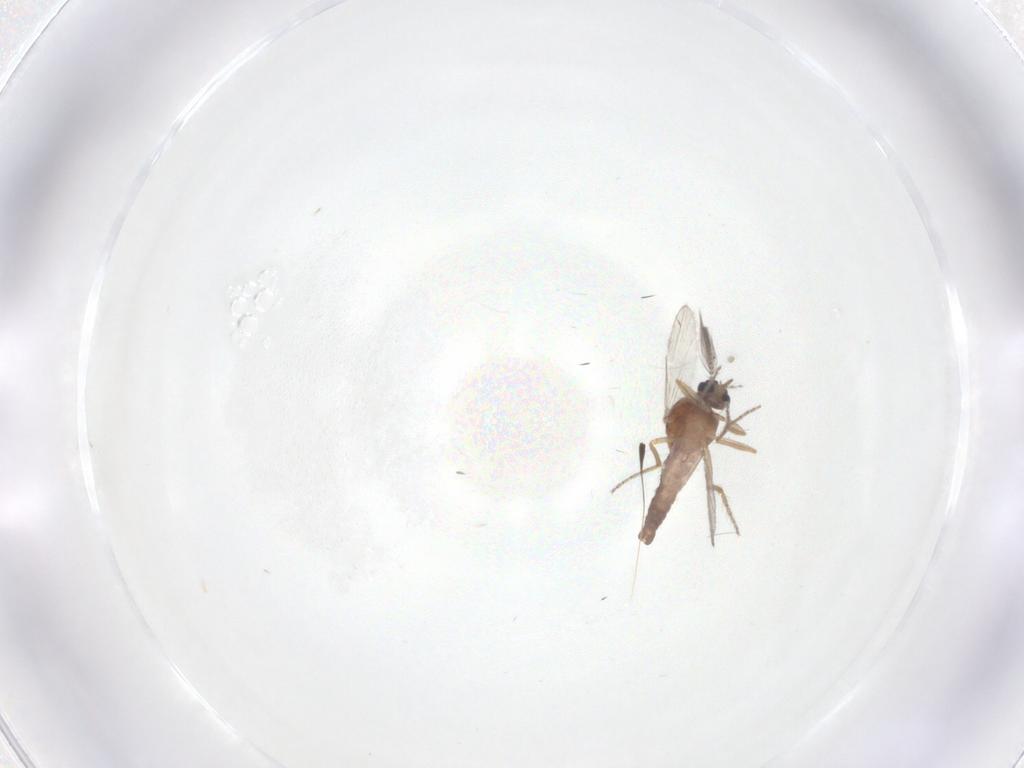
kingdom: Animalia
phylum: Arthropoda
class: Insecta
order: Diptera
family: Ceratopogonidae
